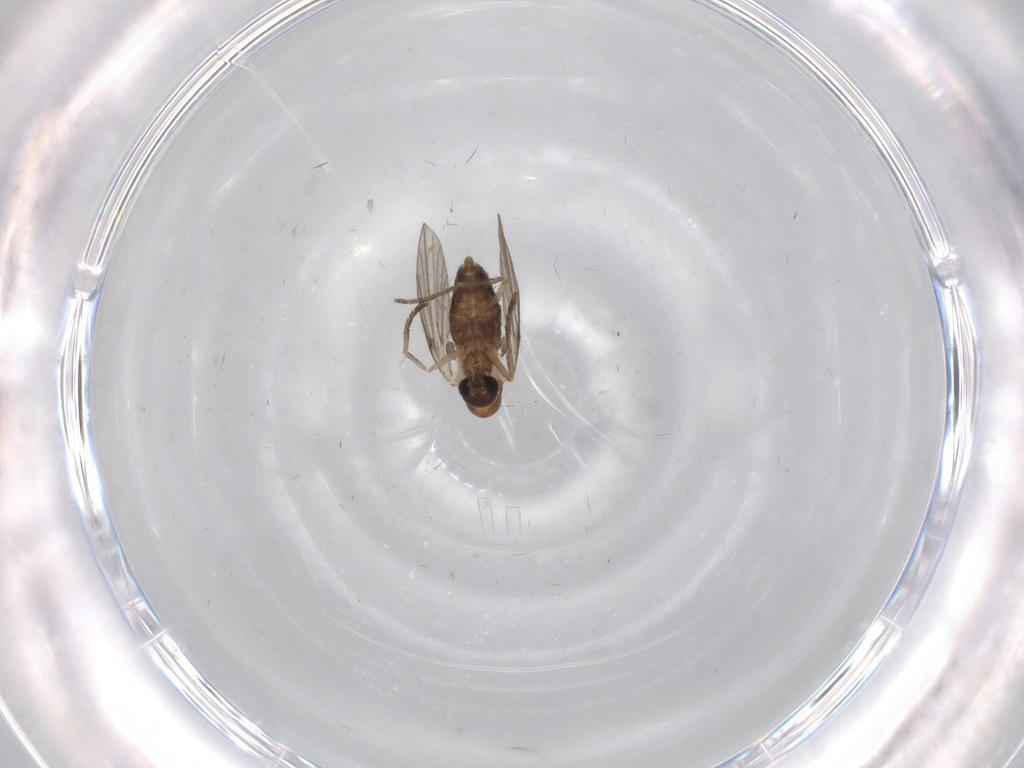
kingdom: Animalia
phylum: Arthropoda
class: Insecta
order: Diptera
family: Psychodidae
